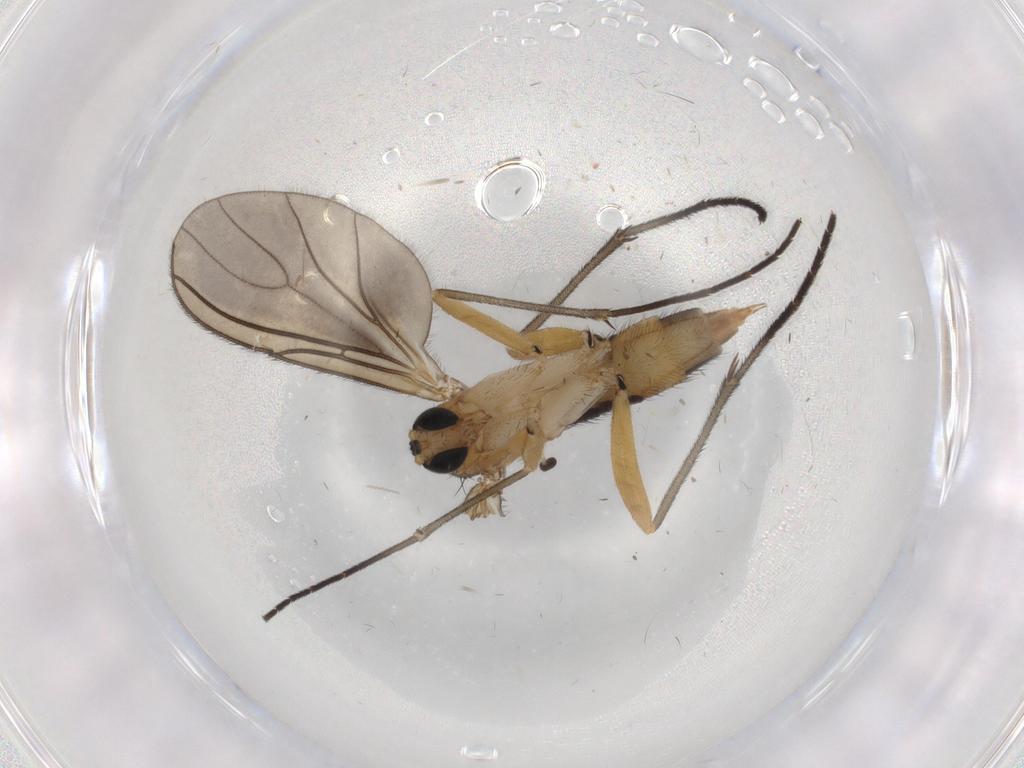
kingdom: Animalia
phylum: Arthropoda
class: Insecta
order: Diptera
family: Sciaridae
